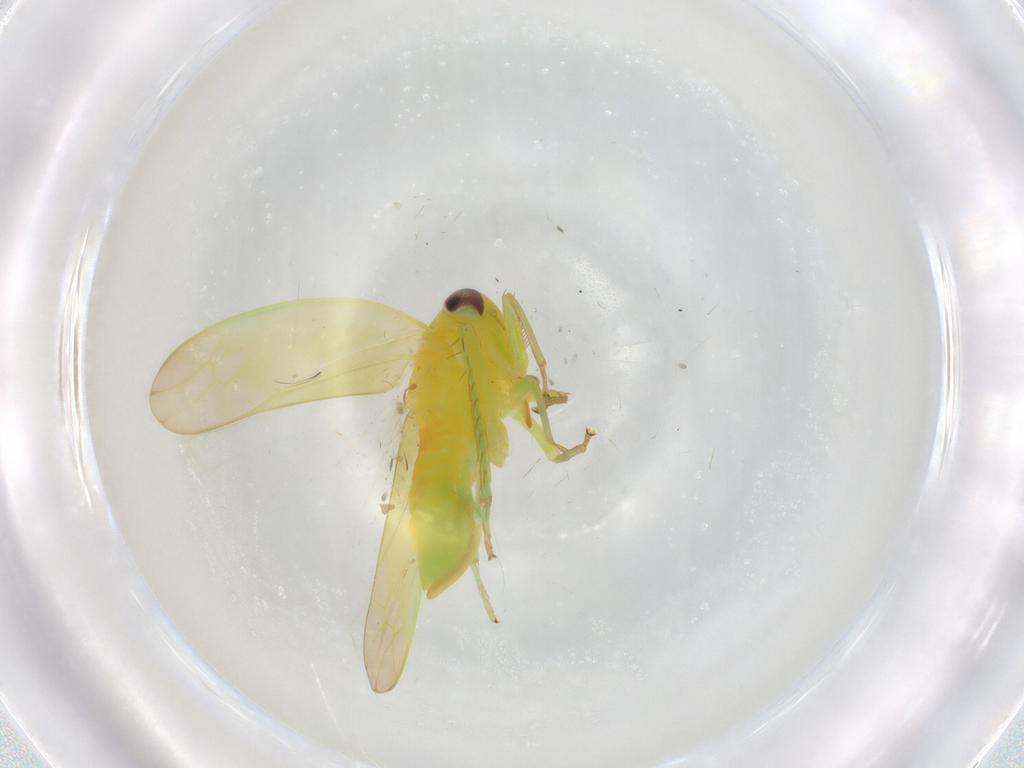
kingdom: Animalia
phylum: Arthropoda
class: Insecta
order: Hemiptera
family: Cicadellidae
